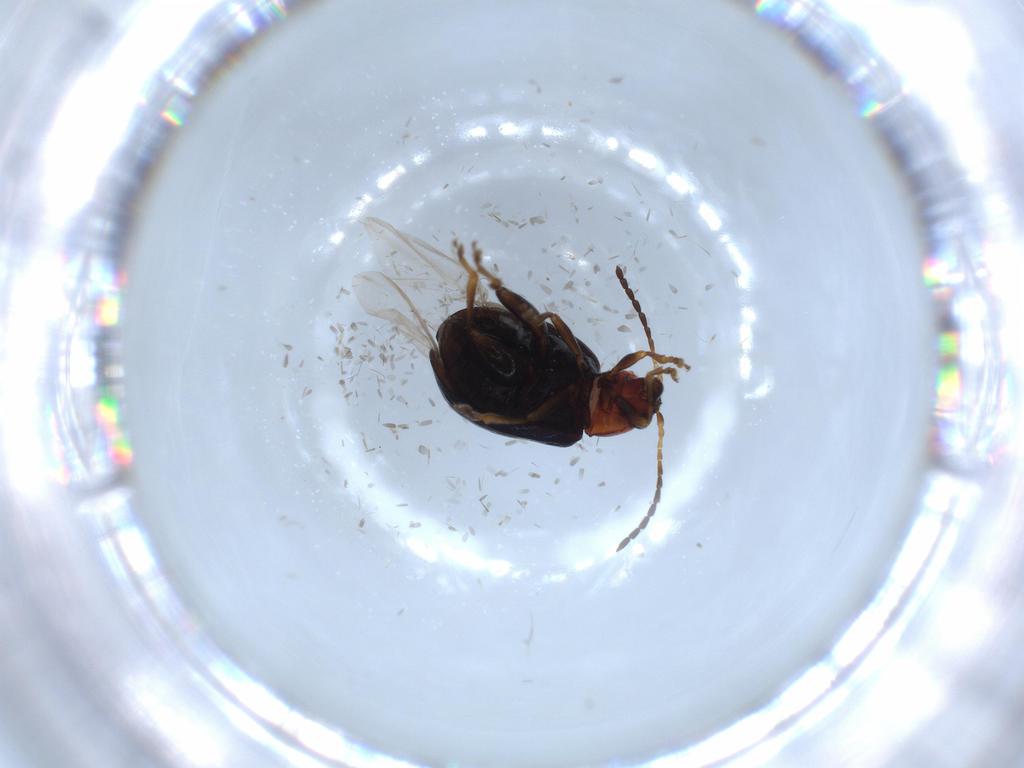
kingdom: Animalia
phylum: Arthropoda
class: Insecta
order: Coleoptera
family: Chrysomelidae
